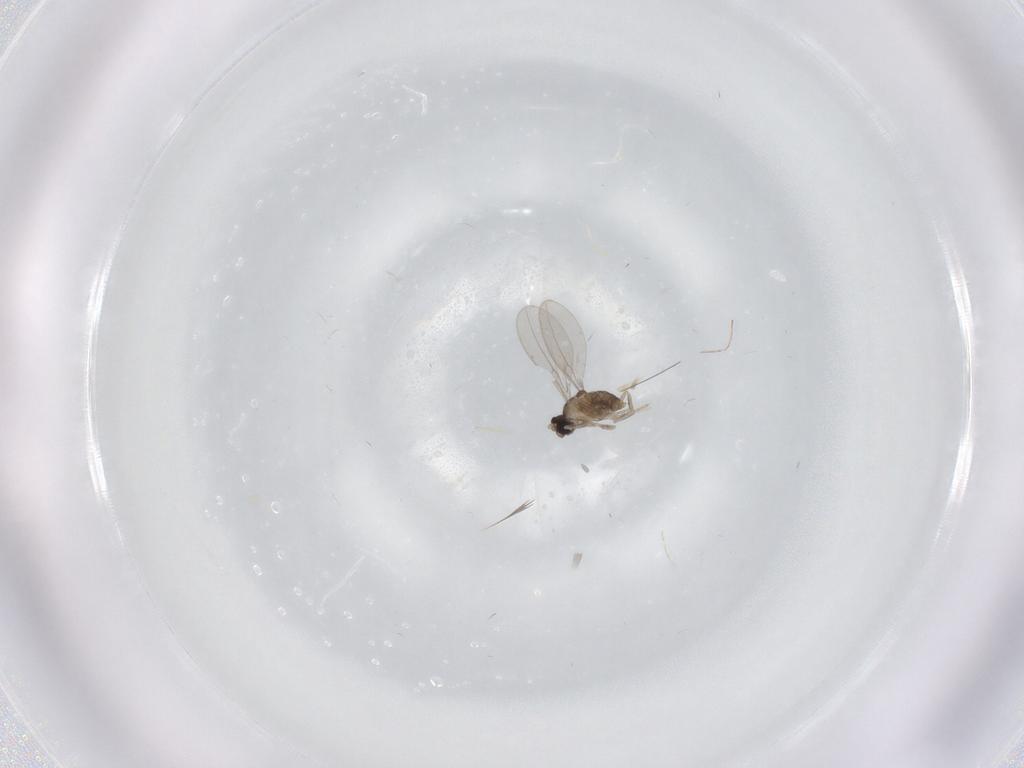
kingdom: Animalia
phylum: Arthropoda
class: Insecta
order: Diptera
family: Cecidomyiidae
